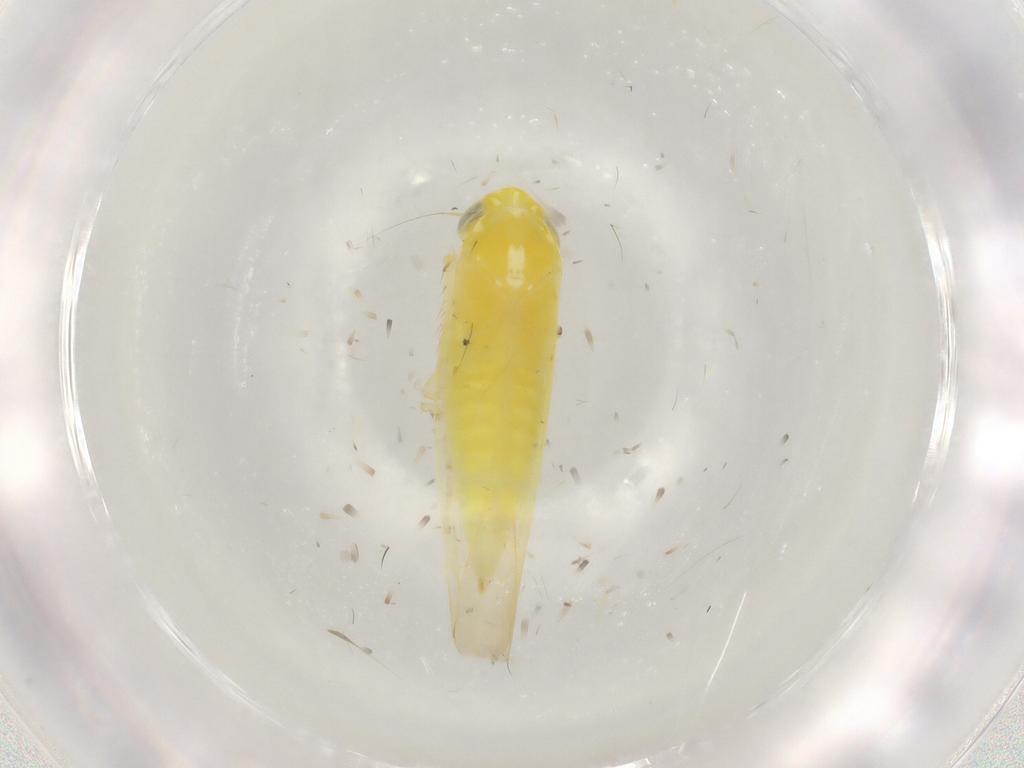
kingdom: Animalia
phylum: Arthropoda
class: Insecta
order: Hemiptera
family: Cicadellidae
